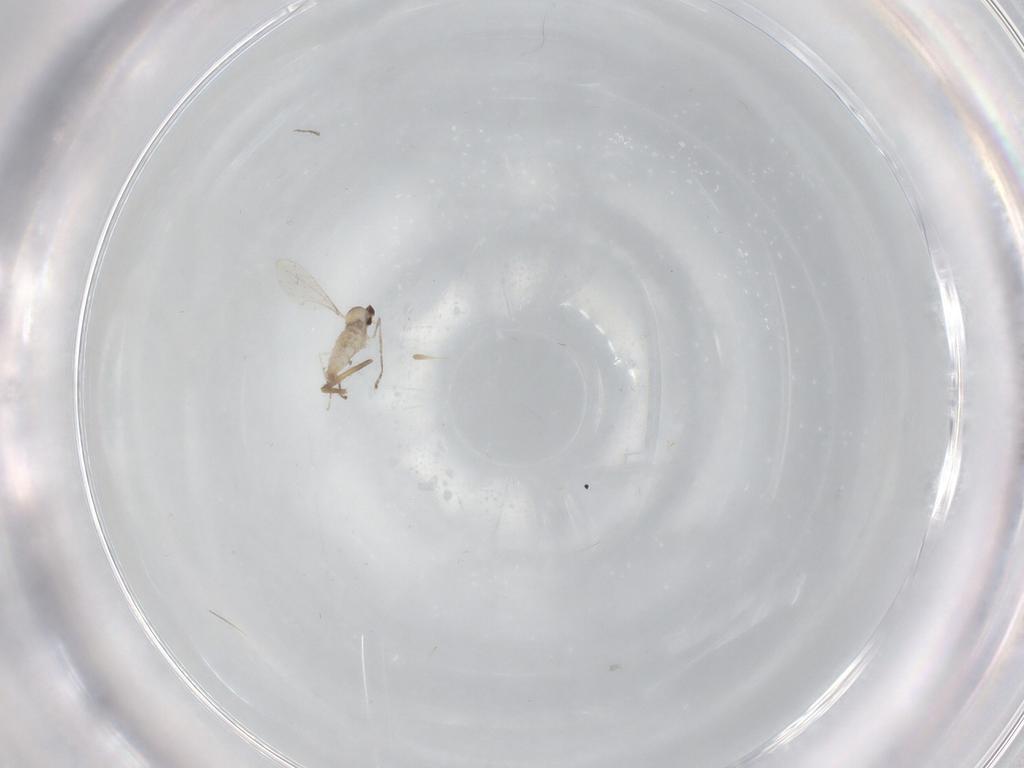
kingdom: Animalia
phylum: Arthropoda
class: Insecta
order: Diptera
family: Cecidomyiidae
